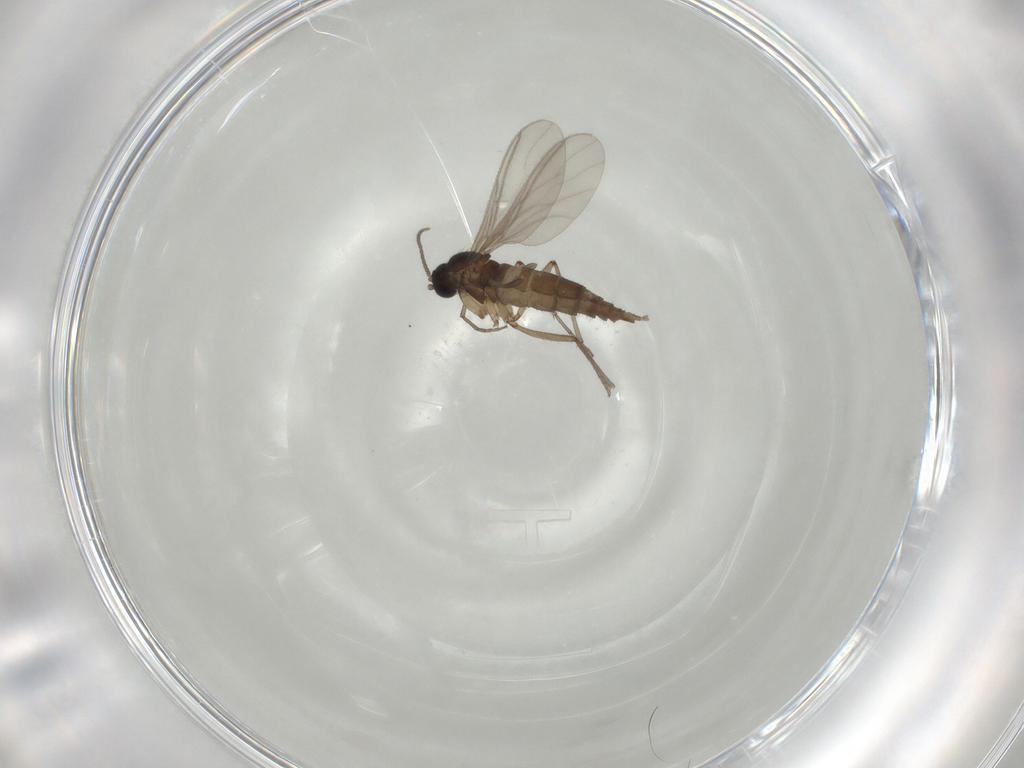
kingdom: Animalia
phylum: Arthropoda
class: Insecta
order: Diptera
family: Sciaridae
